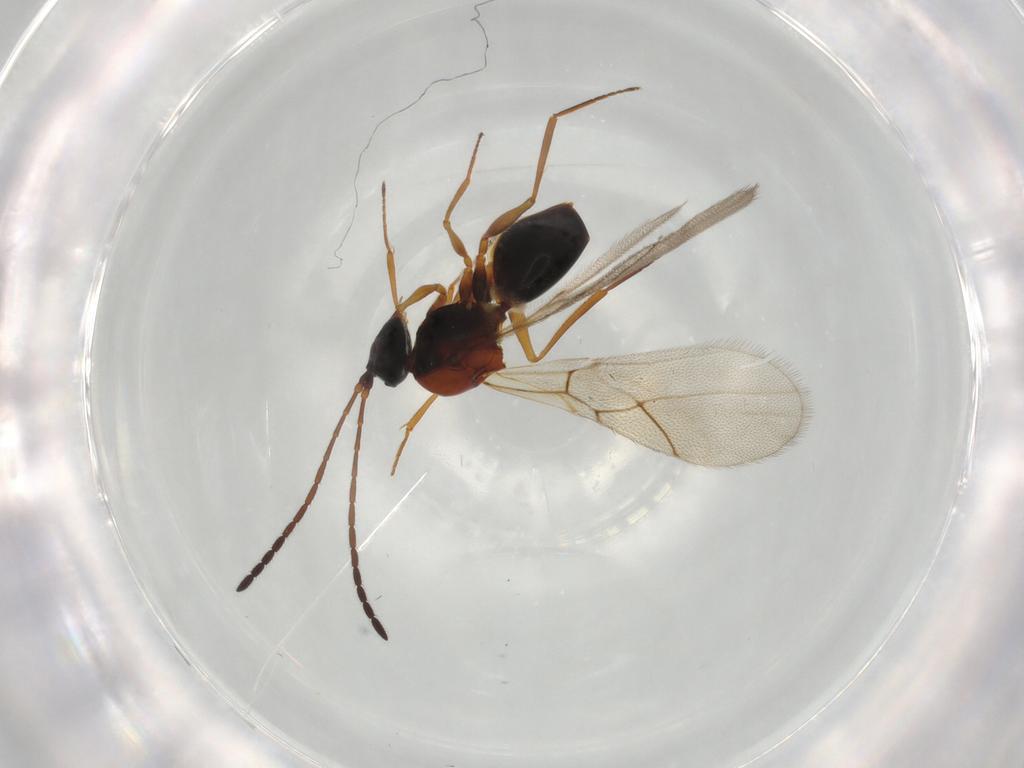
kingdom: Animalia
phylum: Arthropoda
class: Insecta
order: Hymenoptera
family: Figitidae
